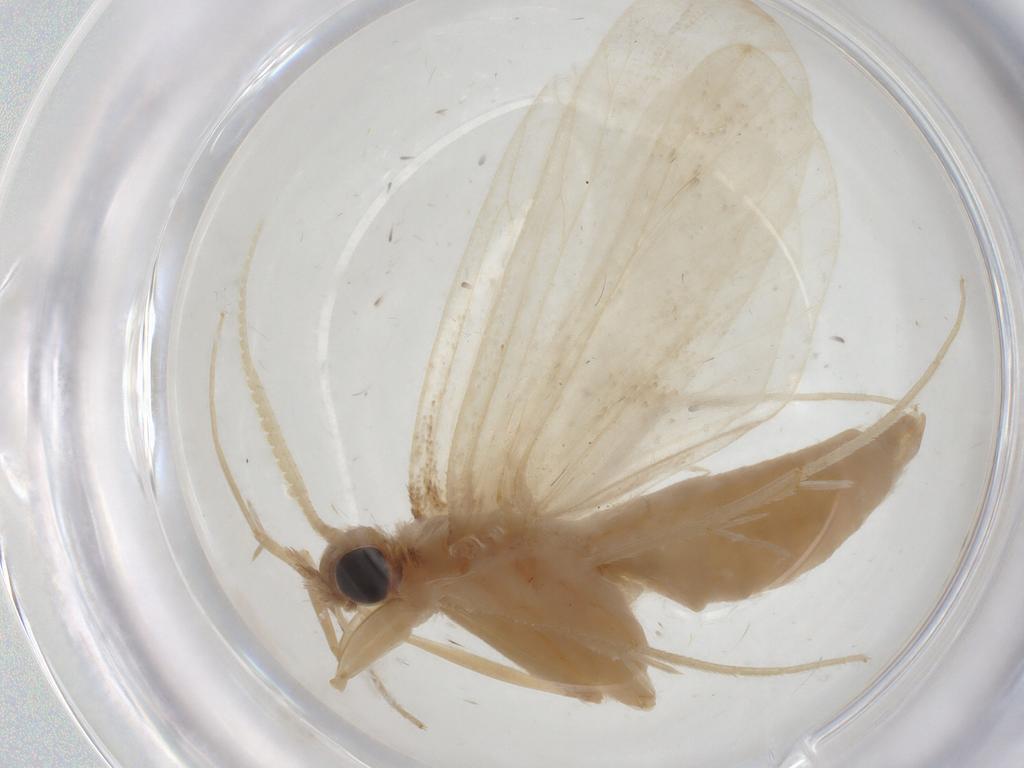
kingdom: Animalia
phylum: Arthropoda
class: Insecta
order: Lepidoptera
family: Crambidae
